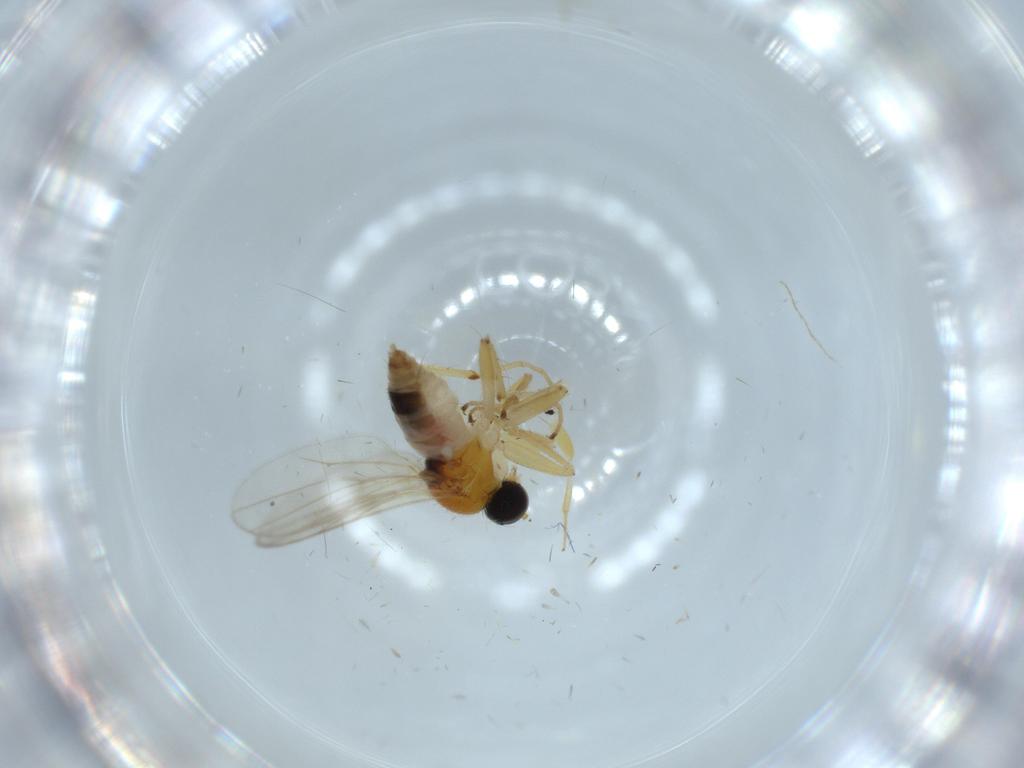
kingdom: Animalia
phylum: Arthropoda
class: Insecta
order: Diptera
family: Hybotidae
